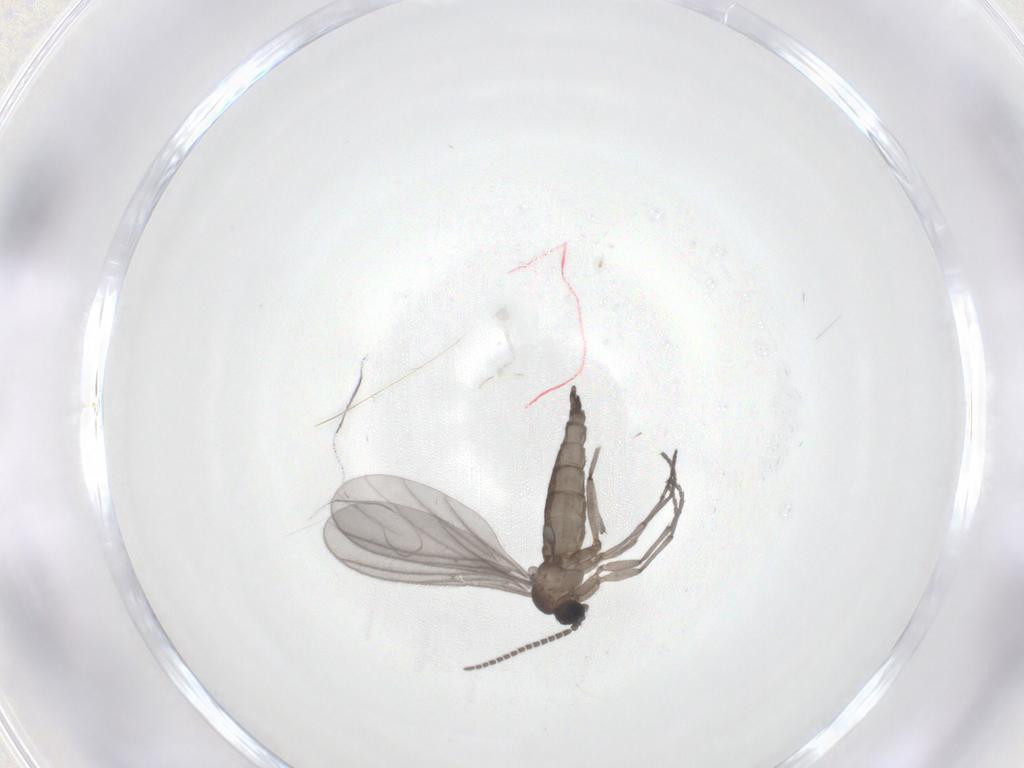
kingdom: Animalia
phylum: Arthropoda
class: Insecta
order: Diptera
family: Sciaridae
